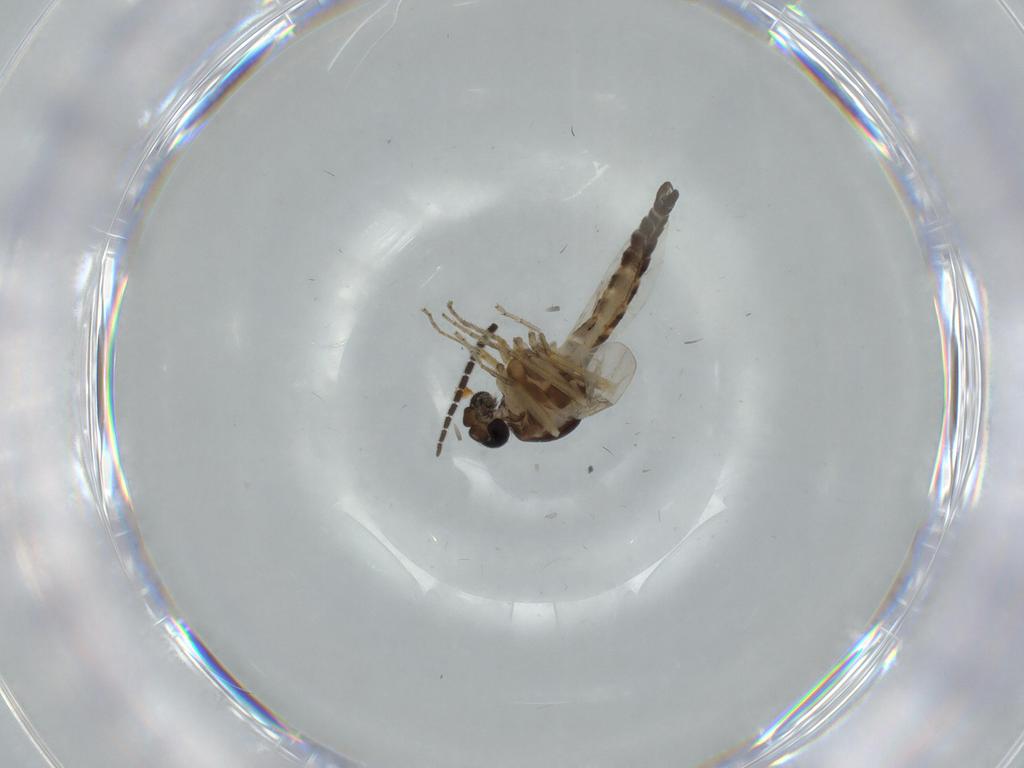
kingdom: Animalia
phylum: Arthropoda
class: Insecta
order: Diptera
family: Ceratopogonidae
